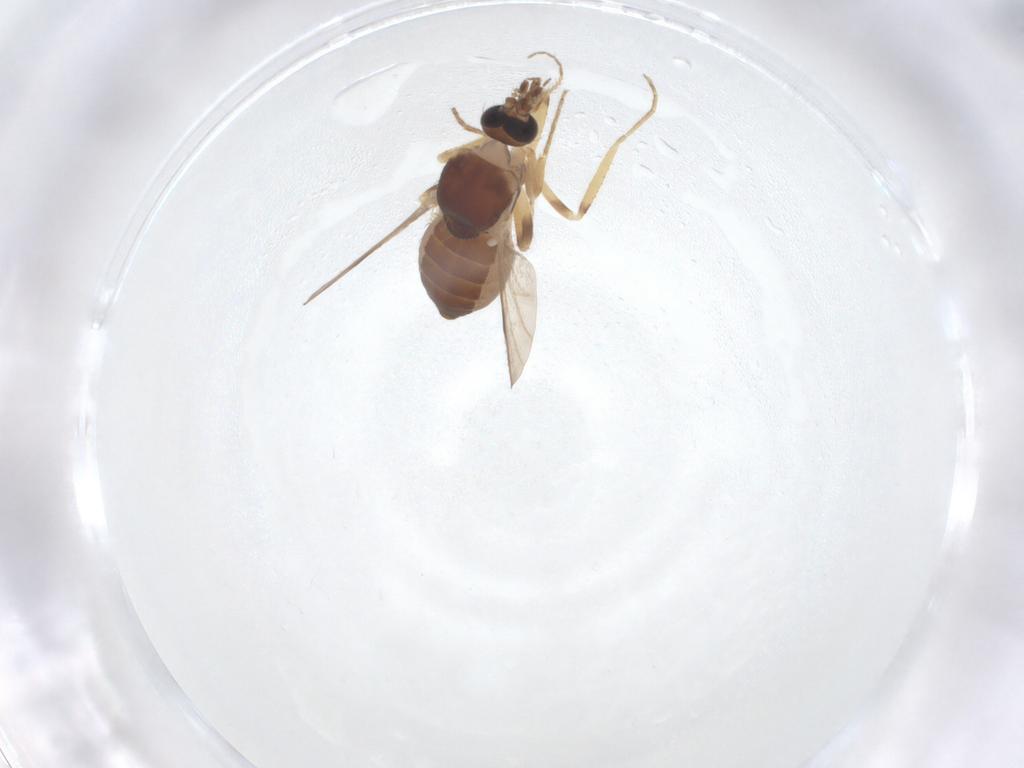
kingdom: Animalia
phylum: Arthropoda
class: Insecta
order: Diptera
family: Ceratopogonidae
